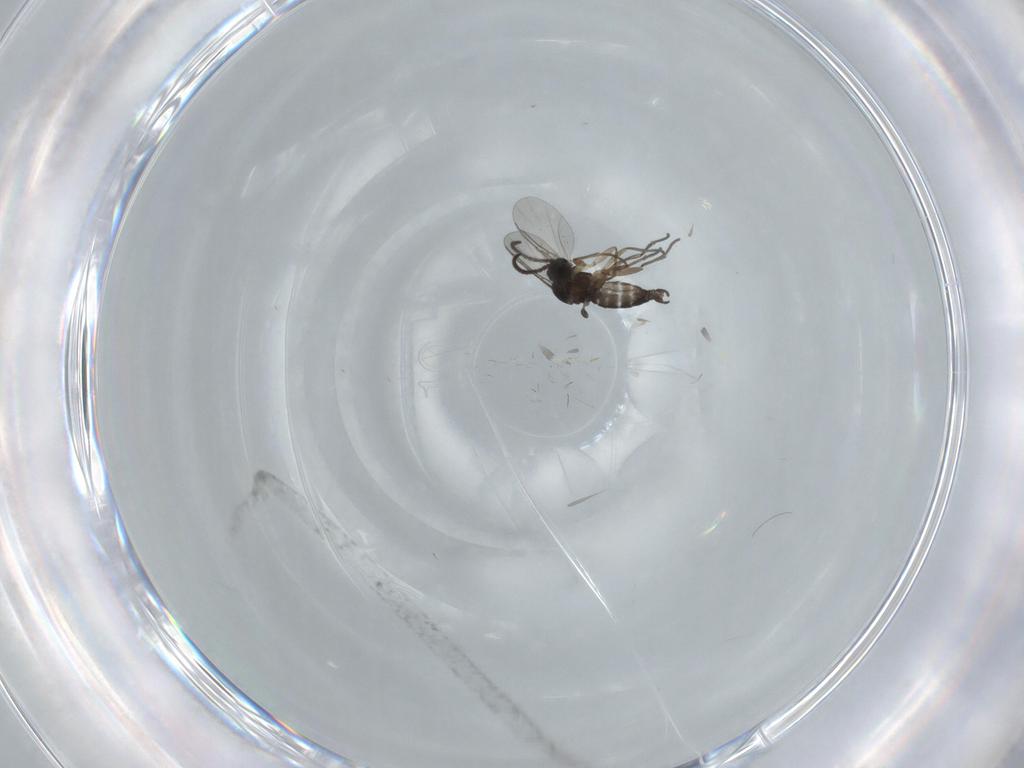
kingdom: Animalia
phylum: Arthropoda
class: Insecta
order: Diptera
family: Sciaridae
